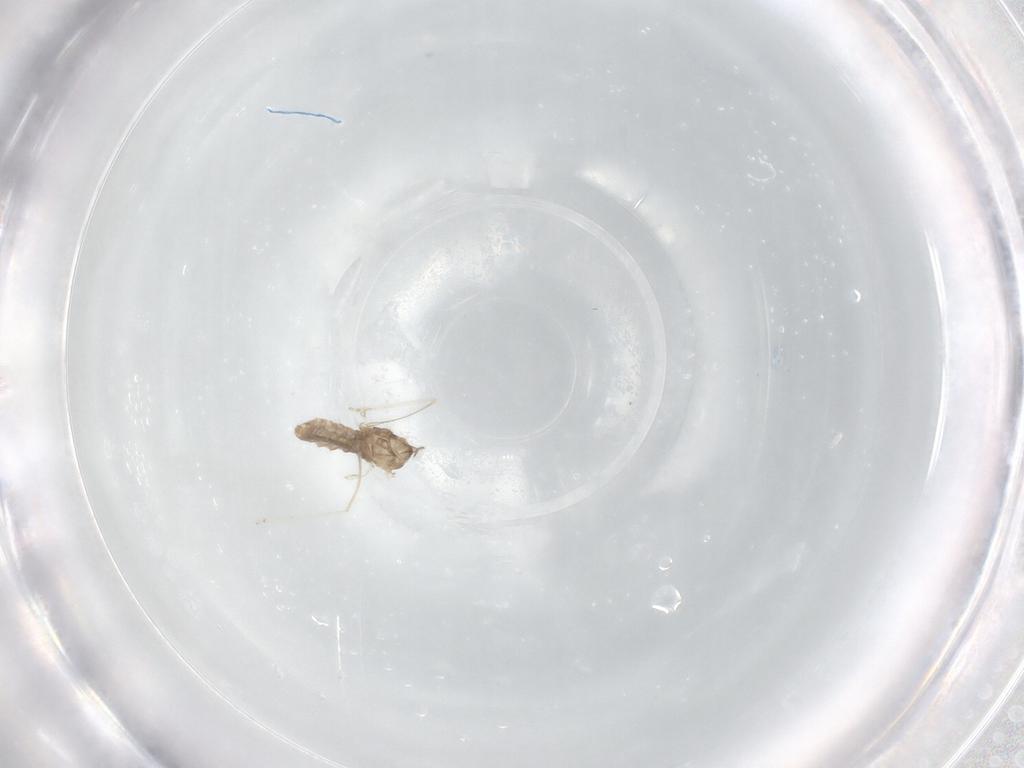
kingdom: Animalia
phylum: Arthropoda
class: Insecta
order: Diptera
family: Cecidomyiidae
